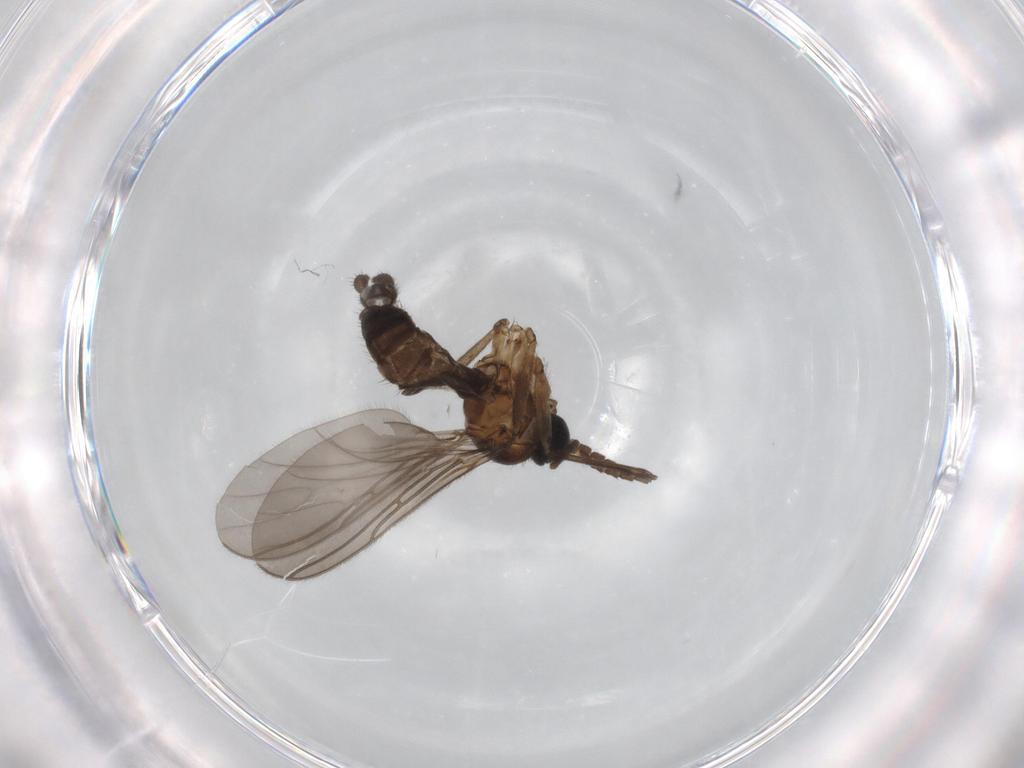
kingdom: Animalia
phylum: Arthropoda
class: Insecta
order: Diptera
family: Sciaridae
